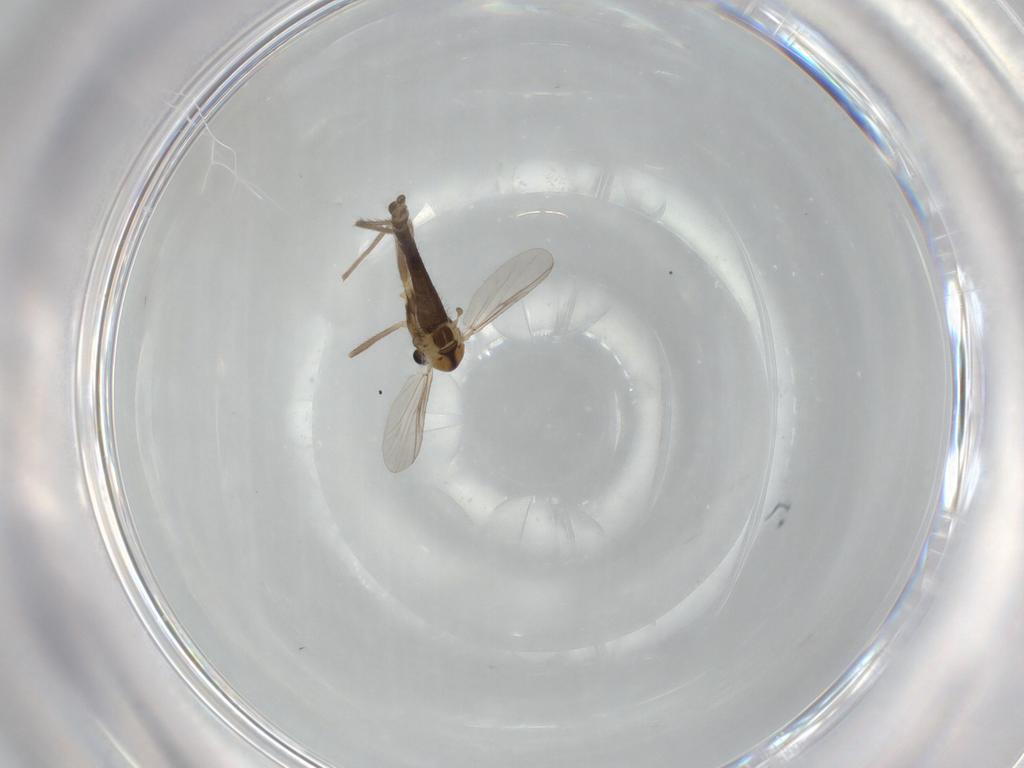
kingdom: Animalia
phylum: Arthropoda
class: Insecta
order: Diptera
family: Chironomidae
